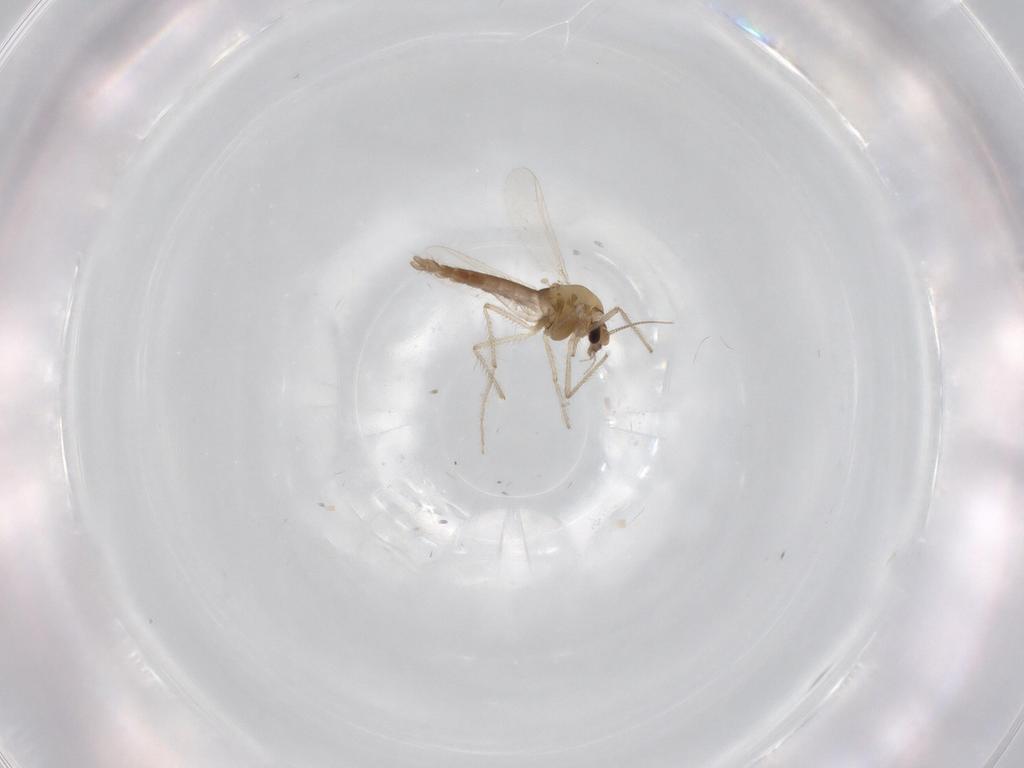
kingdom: Animalia
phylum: Arthropoda
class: Insecta
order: Diptera
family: Chironomidae
